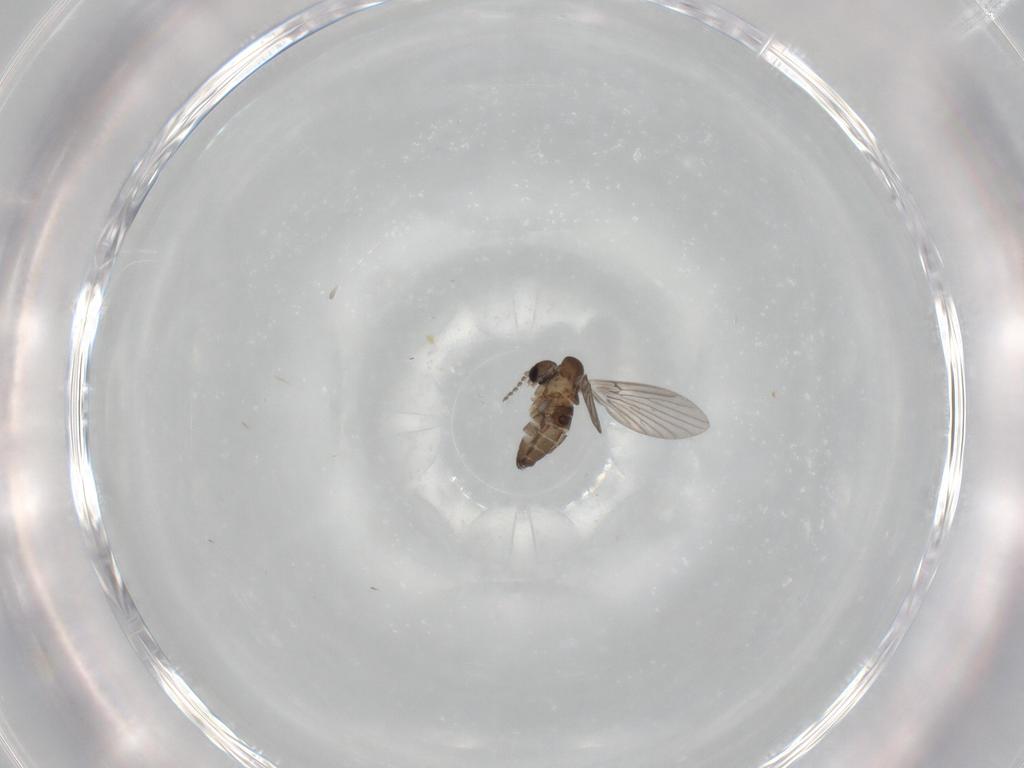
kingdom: Animalia
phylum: Arthropoda
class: Insecta
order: Diptera
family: Psychodidae
